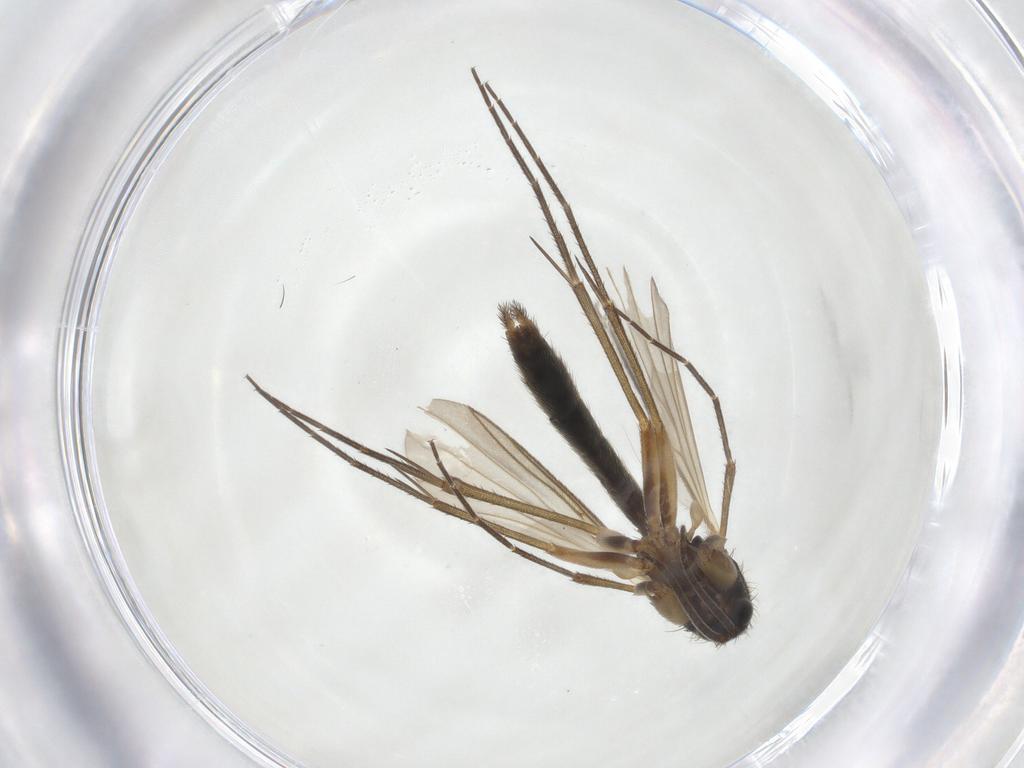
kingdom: Animalia
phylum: Arthropoda
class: Insecta
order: Diptera
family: Mycetophilidae
